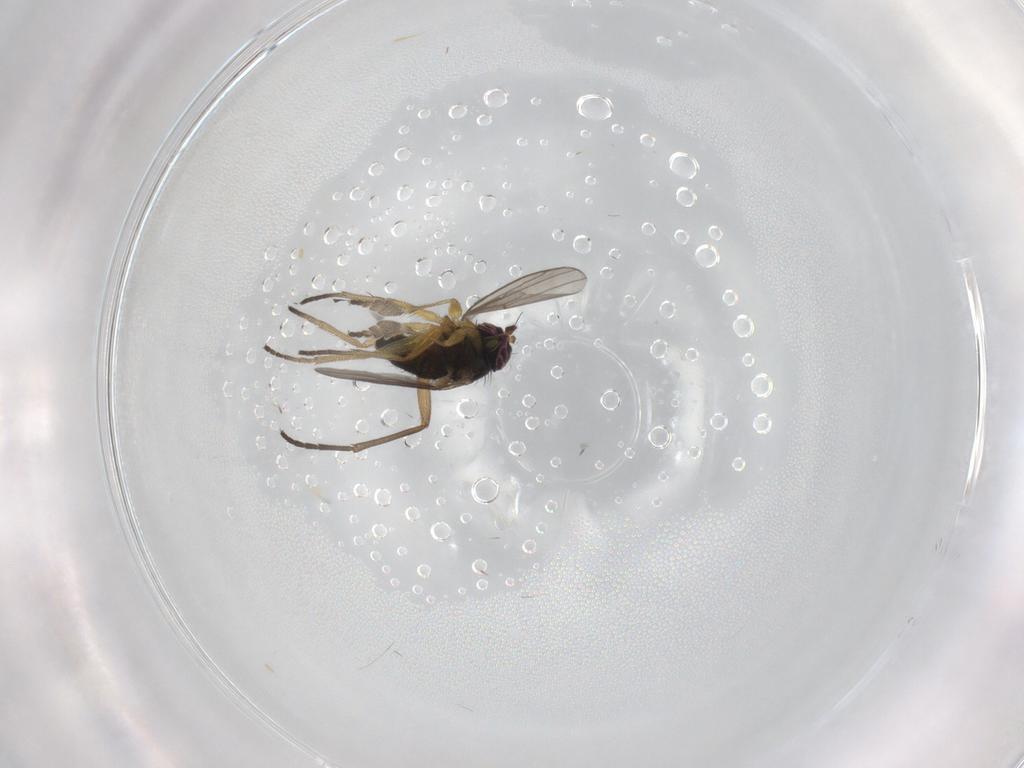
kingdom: Animalia
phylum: Arthropoda
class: Insecta
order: Diptera
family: Dolichopodidae
